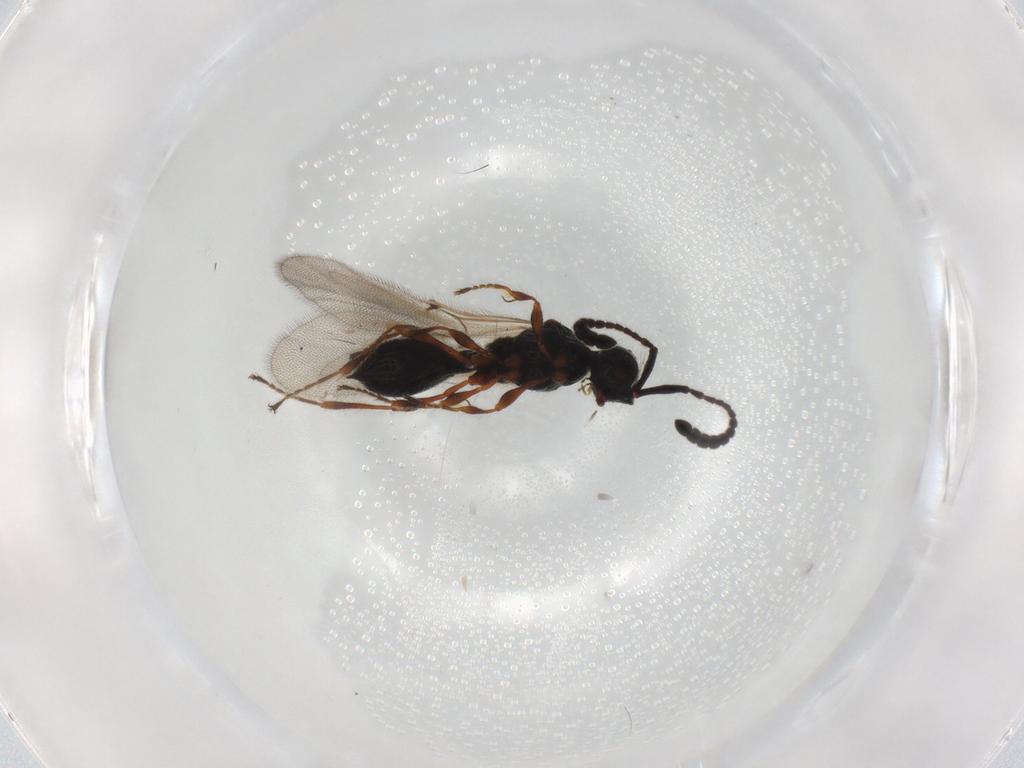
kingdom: Animalia
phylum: Arthropoda
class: Insecta
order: Hymenoptera
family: Diapriidae
